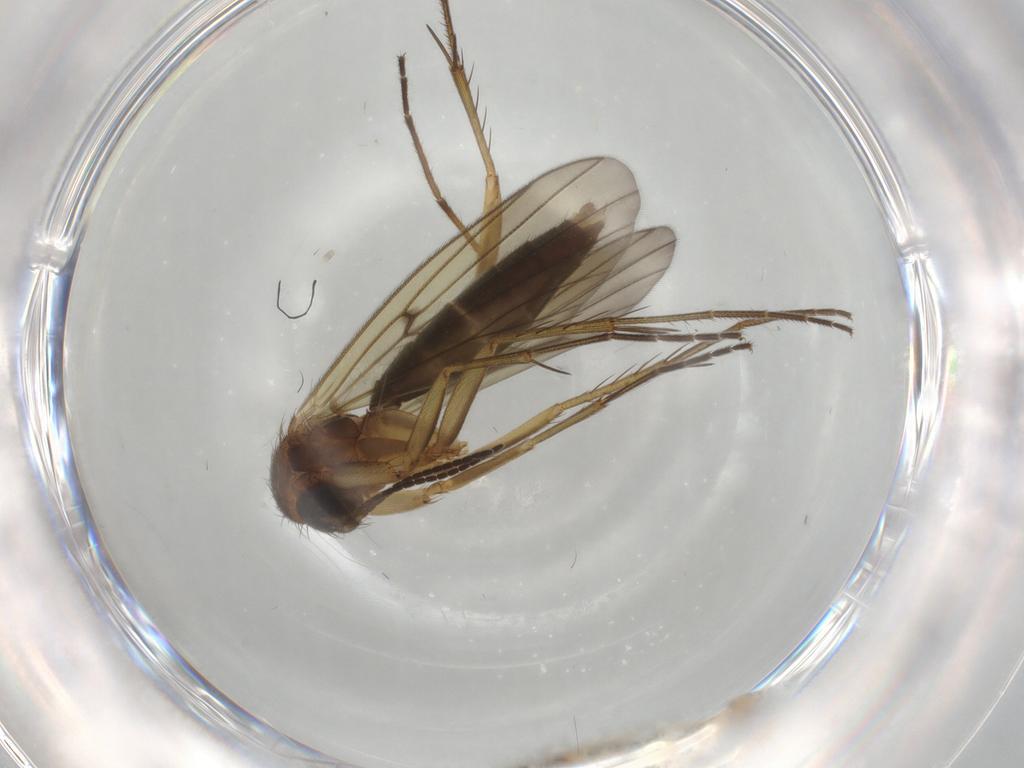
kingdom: Animalia
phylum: Arthropoda
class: Insecta
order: Diptera
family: Chironomidae
